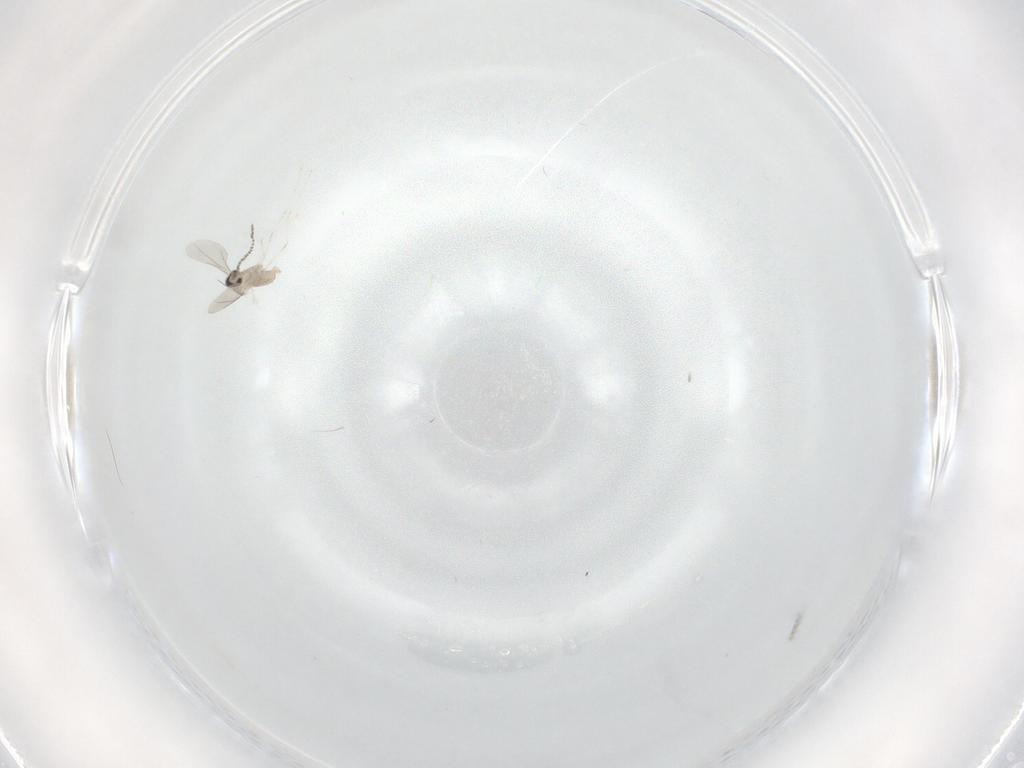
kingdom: Animalia
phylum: Arthropoda
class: Insecta
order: Diptera
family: Cecidomyiidae
